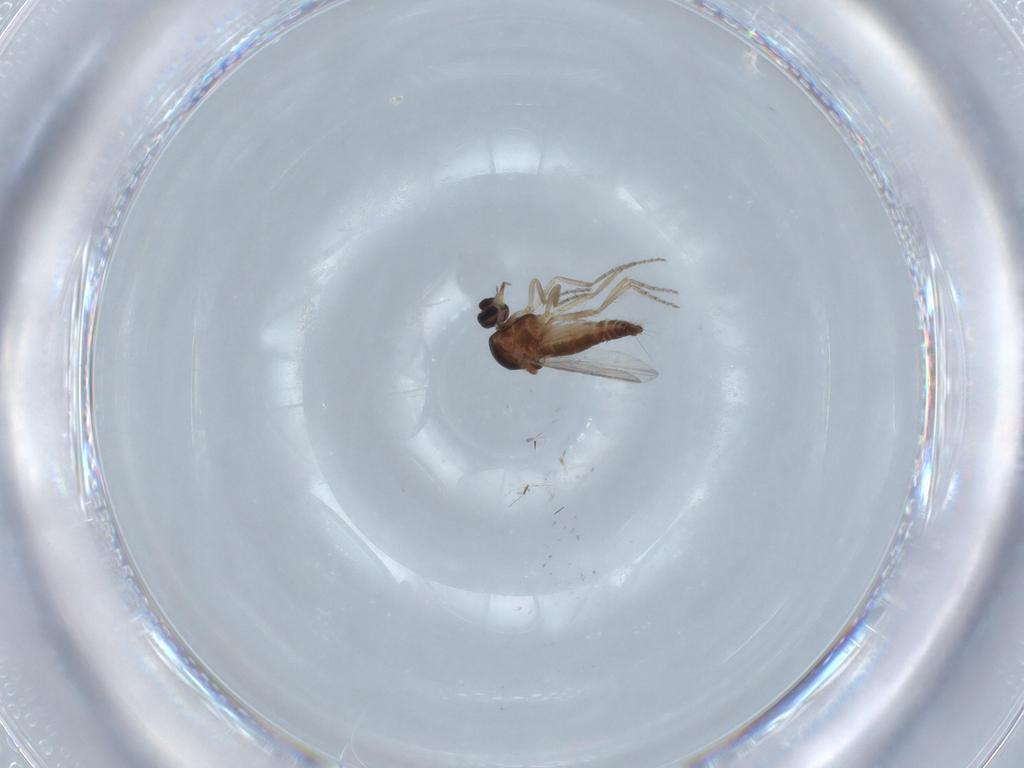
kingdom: Animalia
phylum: Arthropoda
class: Insecta
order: Diptera
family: Ceratopogonidae
